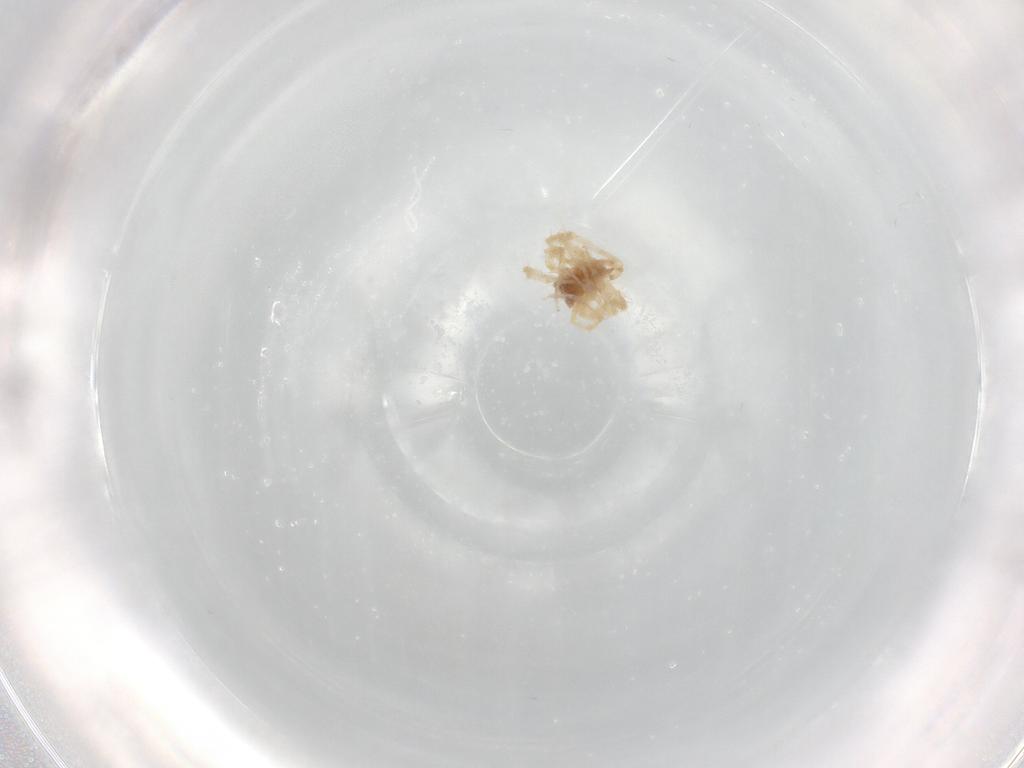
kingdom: Animalia
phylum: Arthropoda
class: Arachnida
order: Trombidiformes
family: Anystidae
